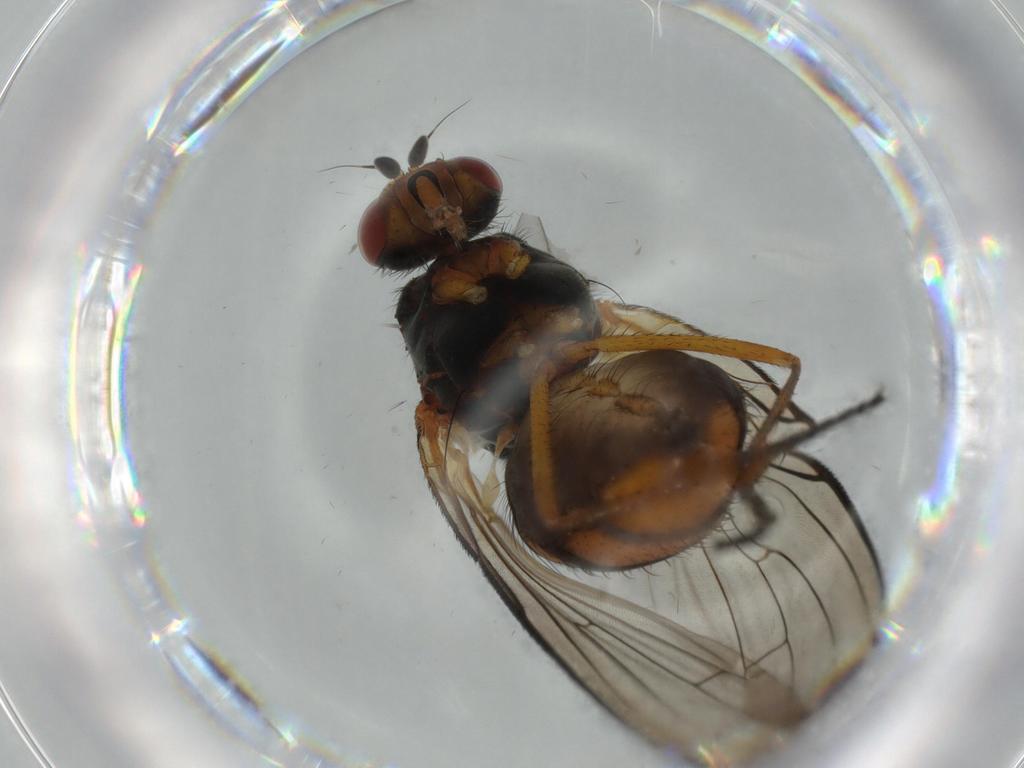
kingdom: Animalia
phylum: Arthropoda
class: Insecta
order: Diptera
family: Anthomyiidae
